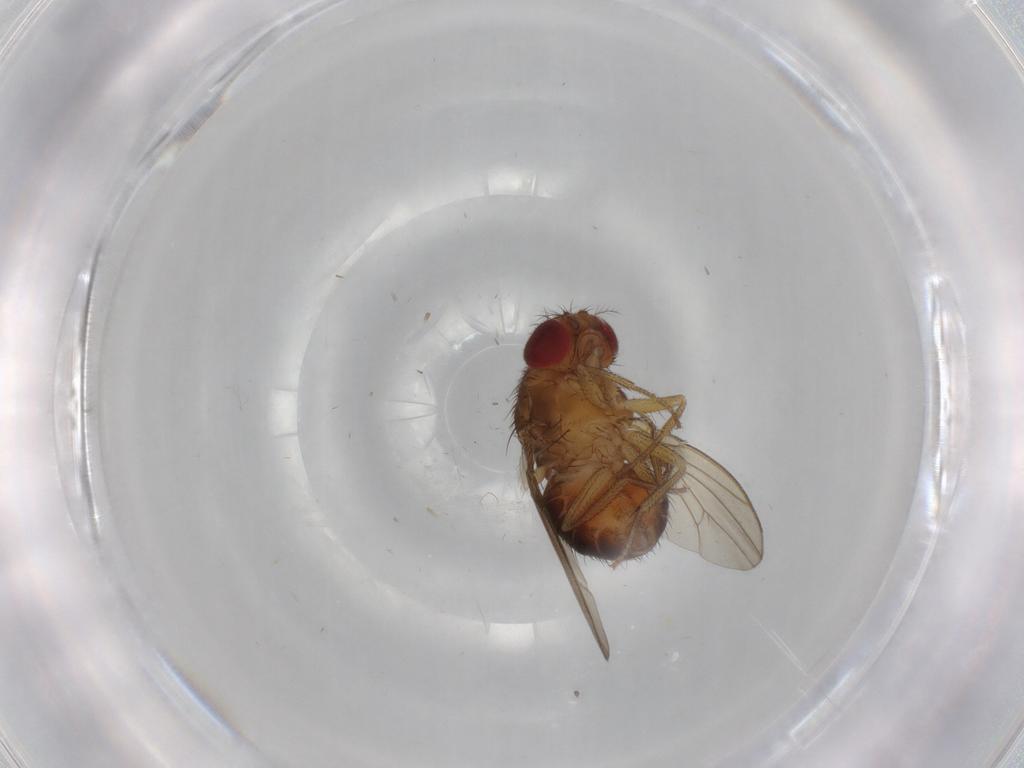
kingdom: Animalia
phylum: Arthropoda
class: Insecta
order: Diptera
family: Drosophilidae
